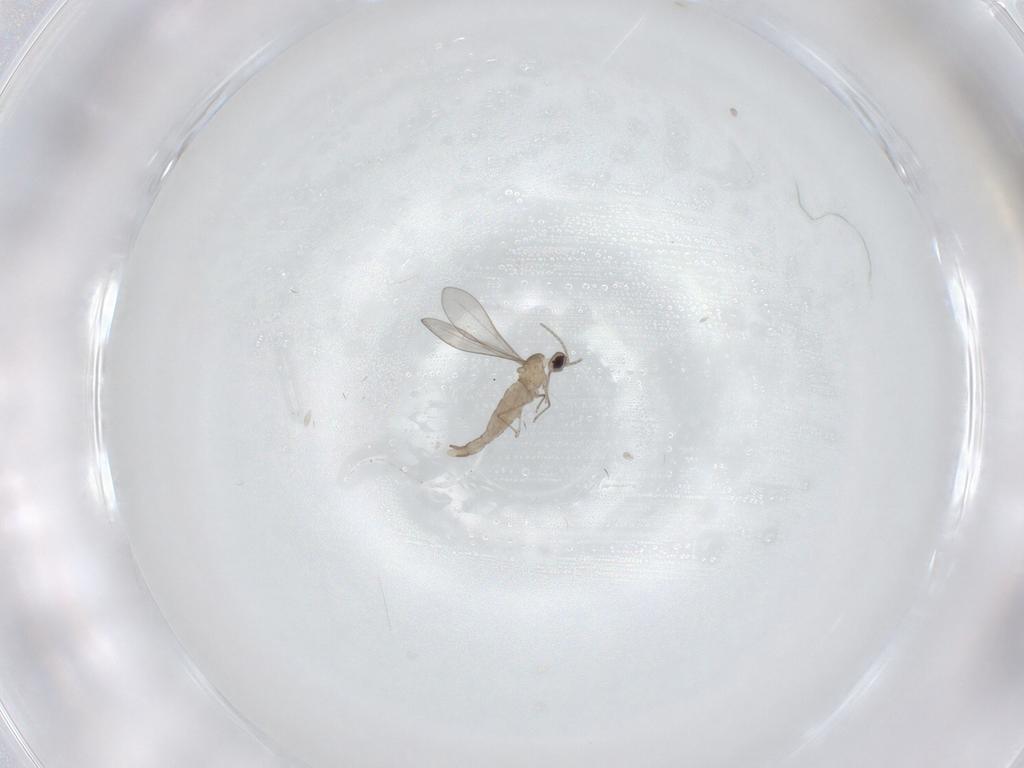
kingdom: Animalia
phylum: Arthropoda
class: Insecta
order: Diptera
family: Cecidomyiidae
